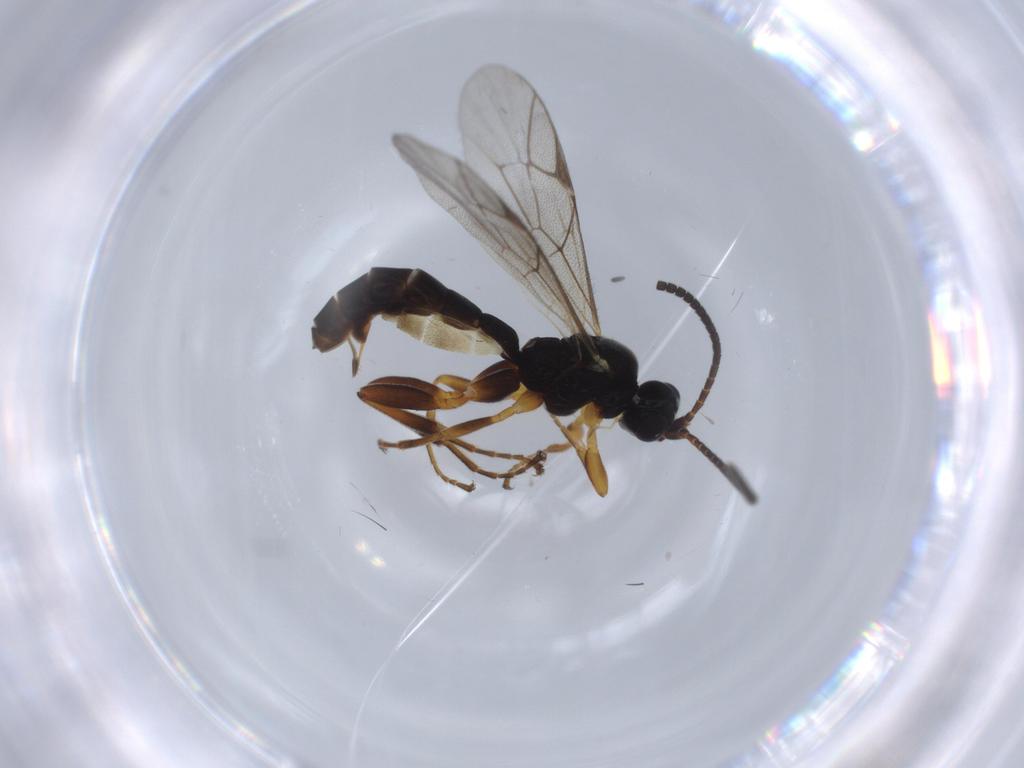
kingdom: Animalia
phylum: Arthropoda
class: Insecta
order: Hymenoptera
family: Ichneumonidae
